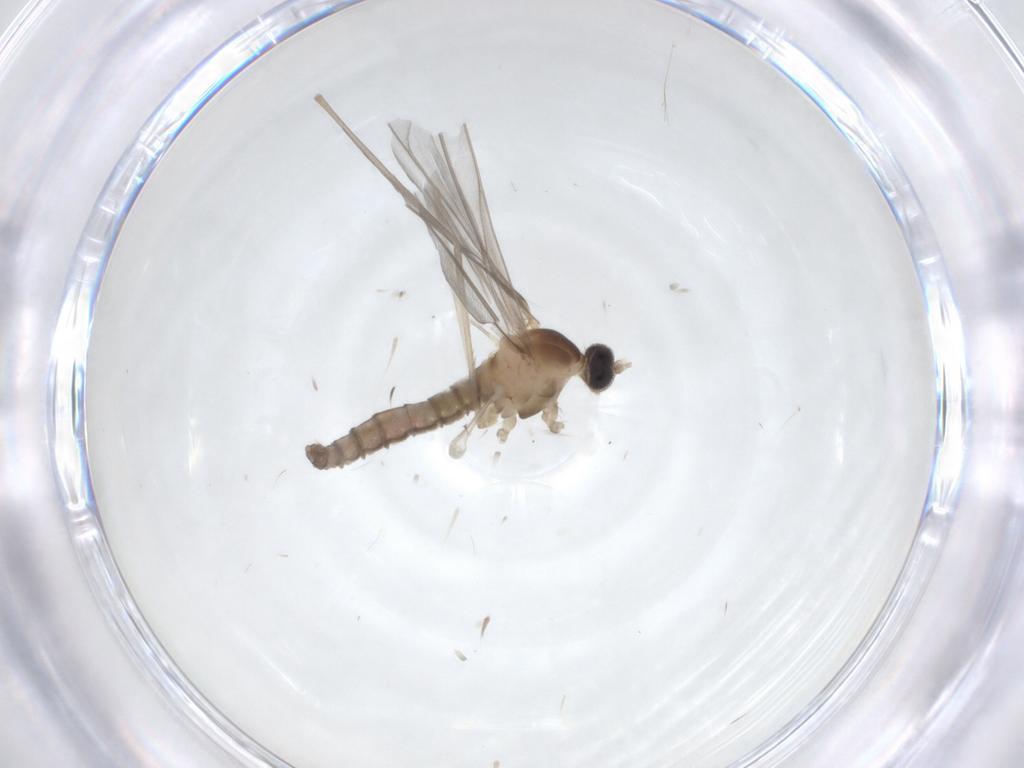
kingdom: Animalia
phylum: Arthropoda
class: Insecta
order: Diptera
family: Cecidomyiidae
